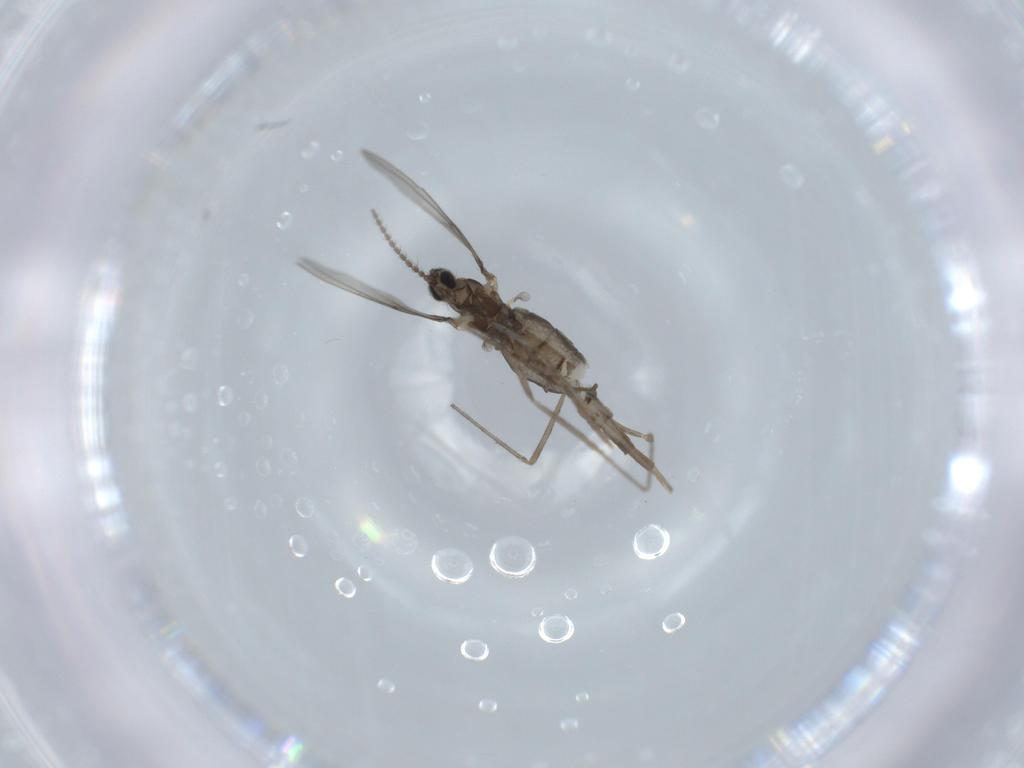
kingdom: Animalia
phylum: Arthropoda
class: Insecta
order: Diptera
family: Cecidomyiidae
